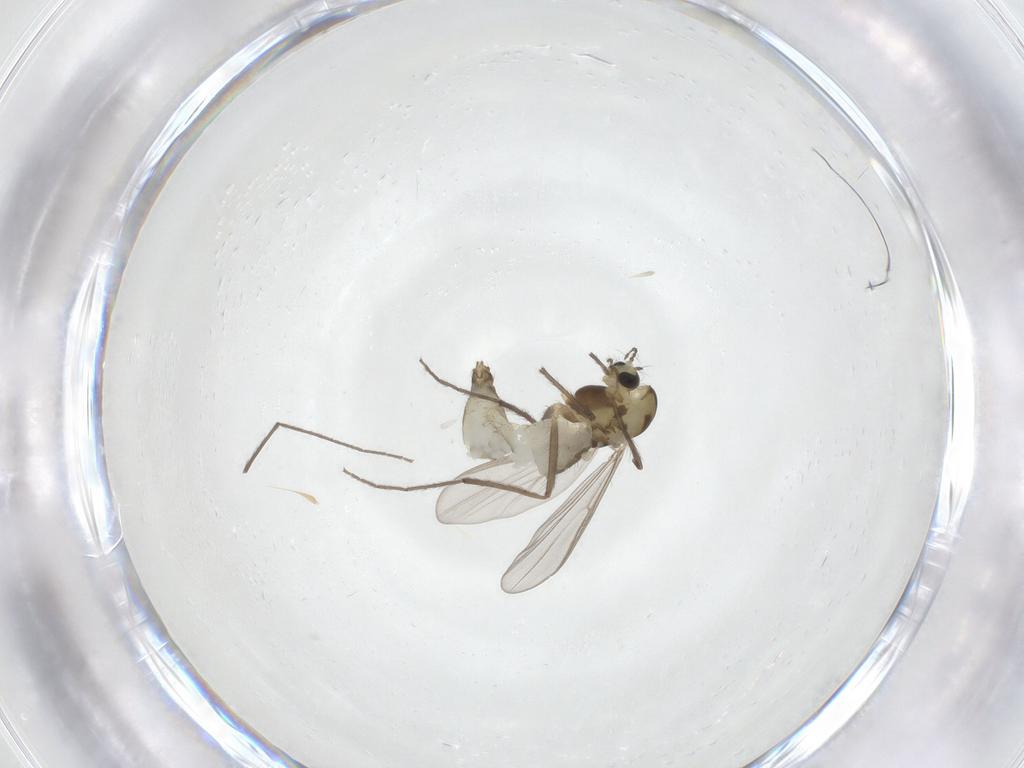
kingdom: Animalia
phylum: Arthropoda
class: Insecta
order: Diptera
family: Chironomidae
